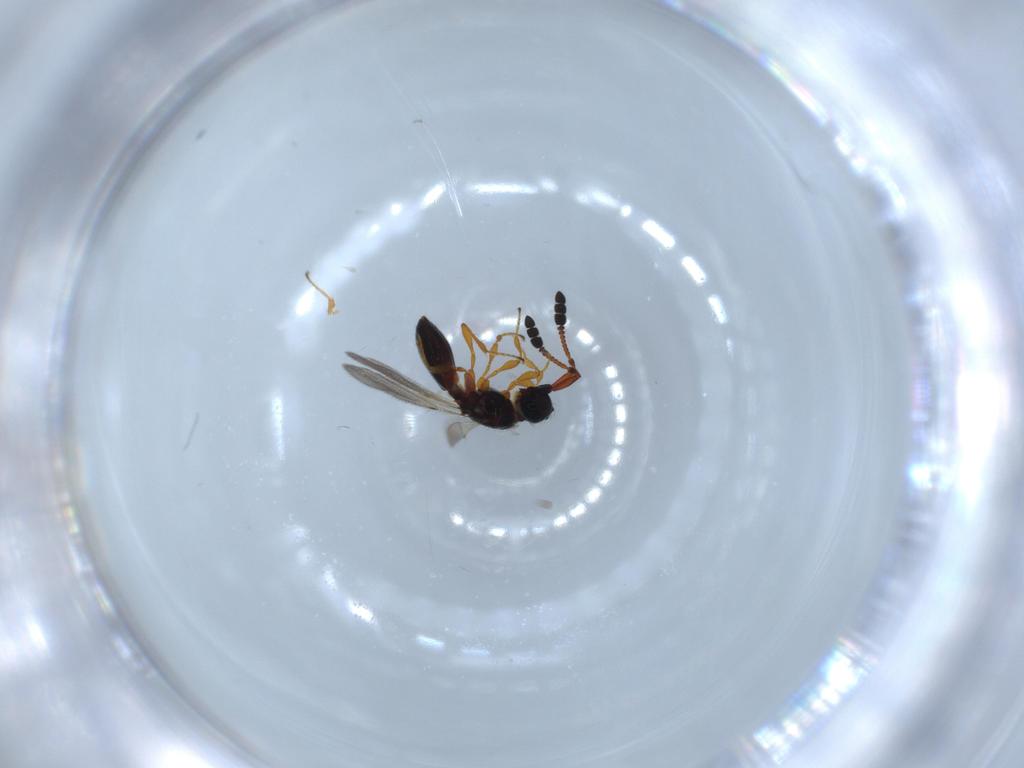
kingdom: Animalia
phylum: Arthropoda
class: Insecta
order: Hymenoptera
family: Diapriidae
